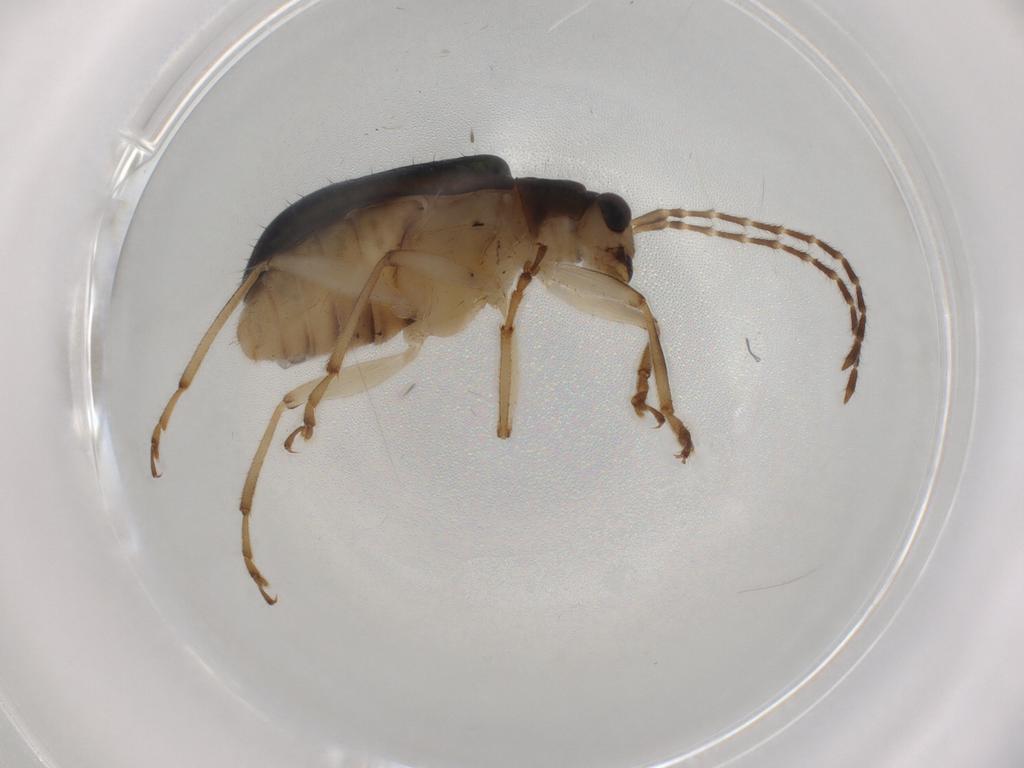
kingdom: Animalia
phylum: Arthropoda
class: Insecta
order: Coleoptera
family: Chrysomelidae
